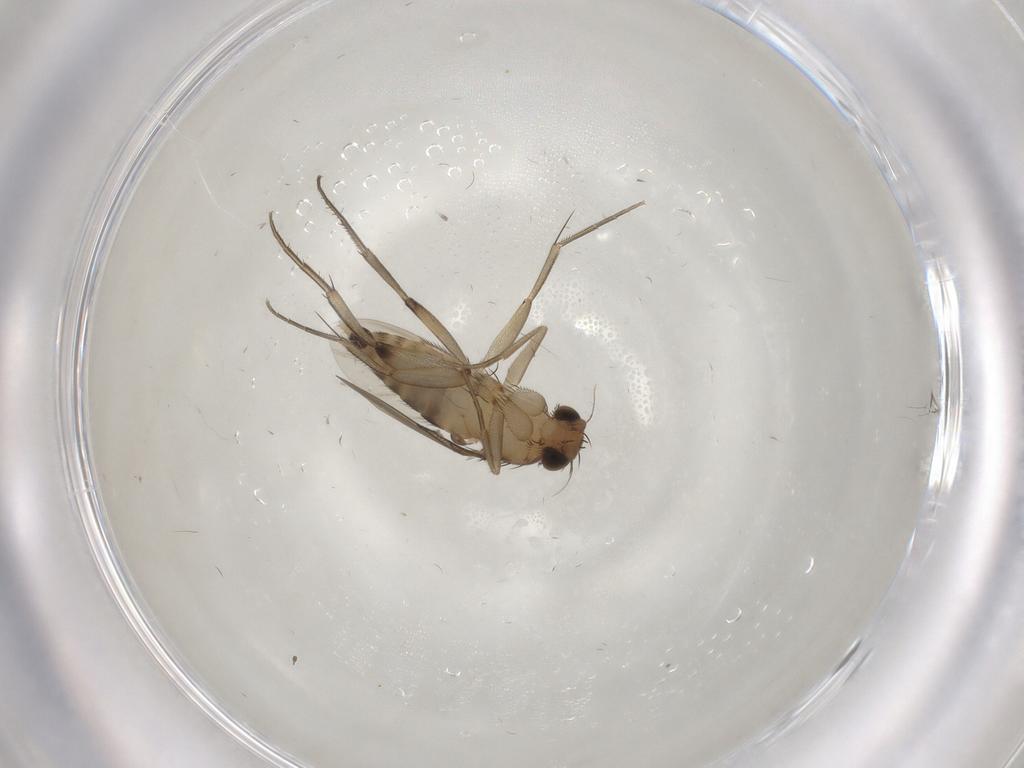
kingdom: Animalia
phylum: Arthropoda
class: Insecta
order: Diptera
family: Cecidomyiidae
